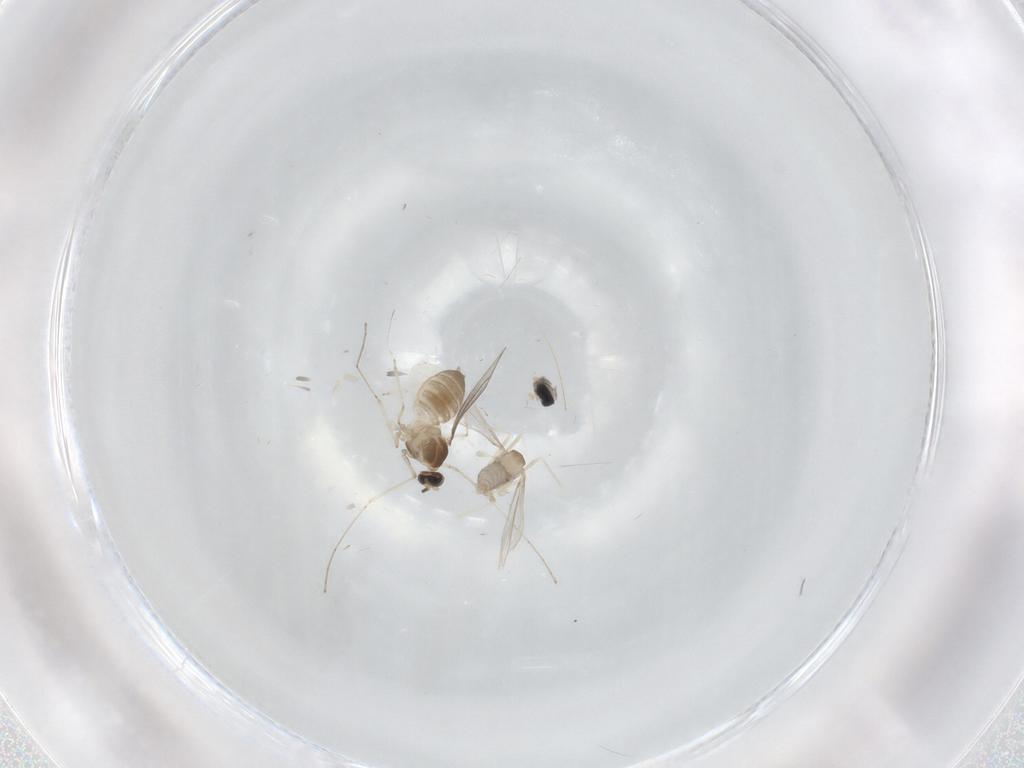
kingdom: Animalia
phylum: Arthropoda
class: Insecta
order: Diptera
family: Cecidomyiidae
